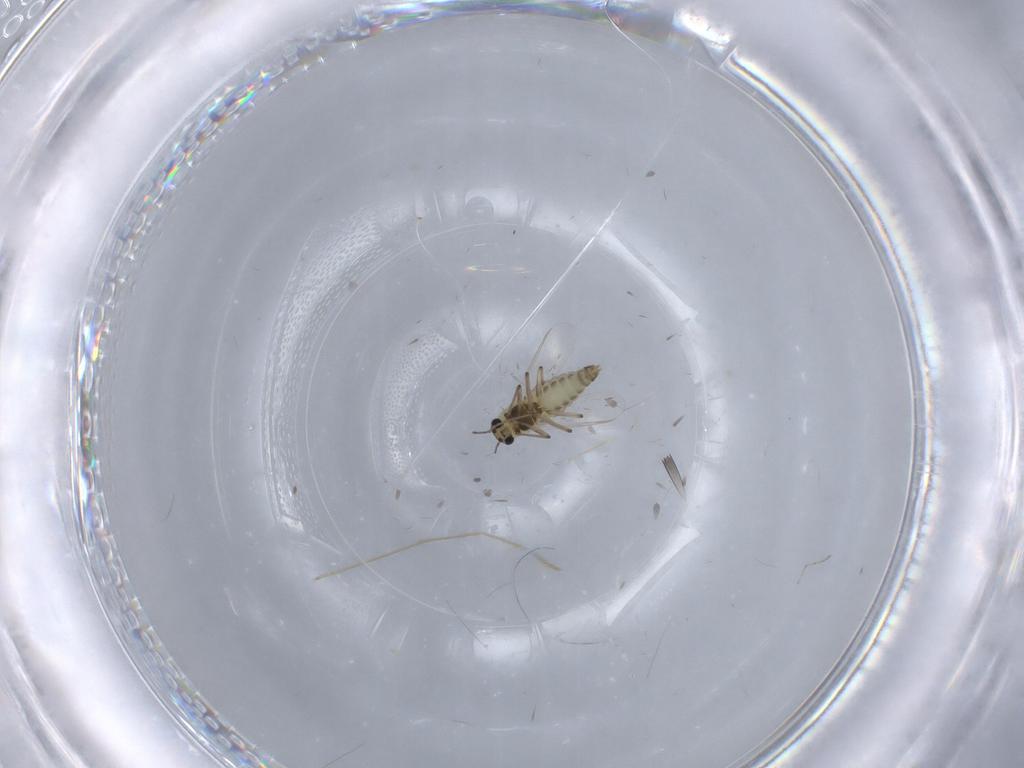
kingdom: Animalia
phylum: Arthropoda
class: Insecta
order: Diptera
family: Chironomidae
